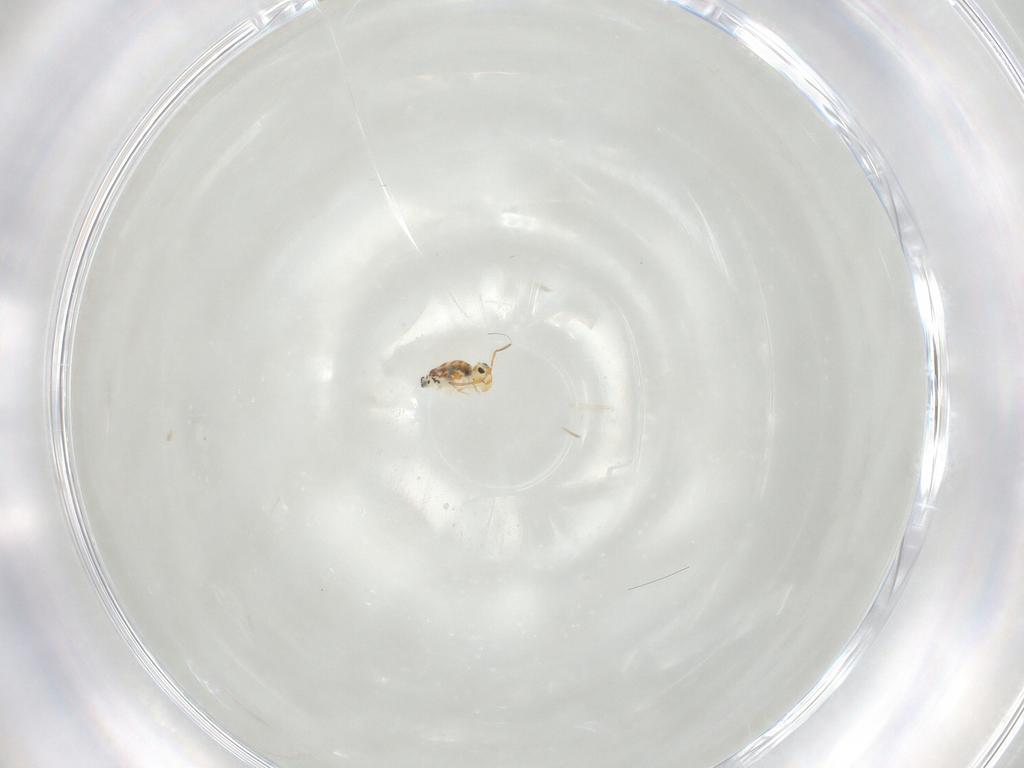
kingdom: Animalia
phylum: Arthropoda
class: Collembola
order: Symphypleona
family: Bourletiellidae
